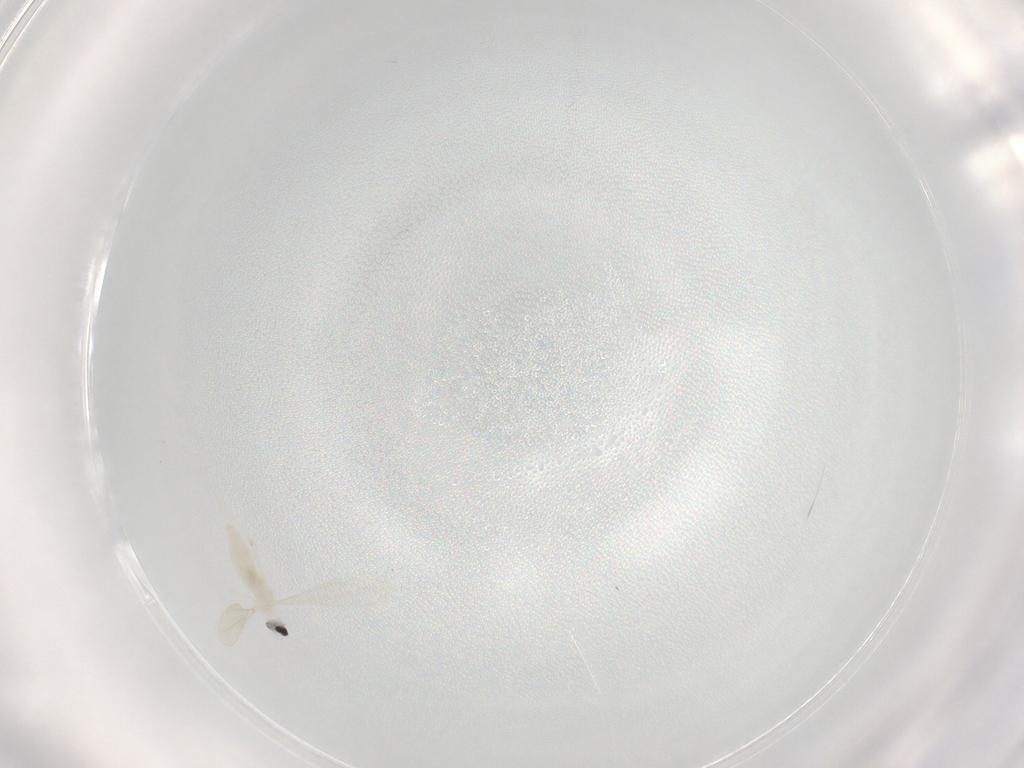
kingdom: Animalia
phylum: Arthropoda
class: Insecta
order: Diptera
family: Cecidomyiidae
